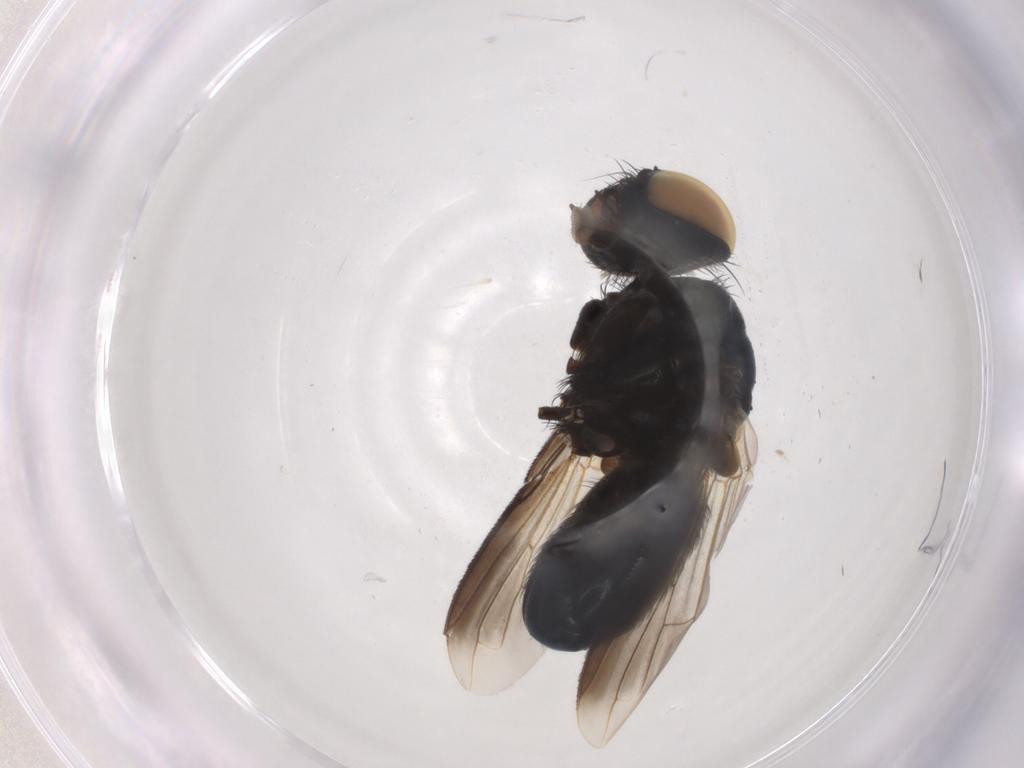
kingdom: Animalia
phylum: Arthropoda
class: Insecta
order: Diptera
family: Tachinidae
